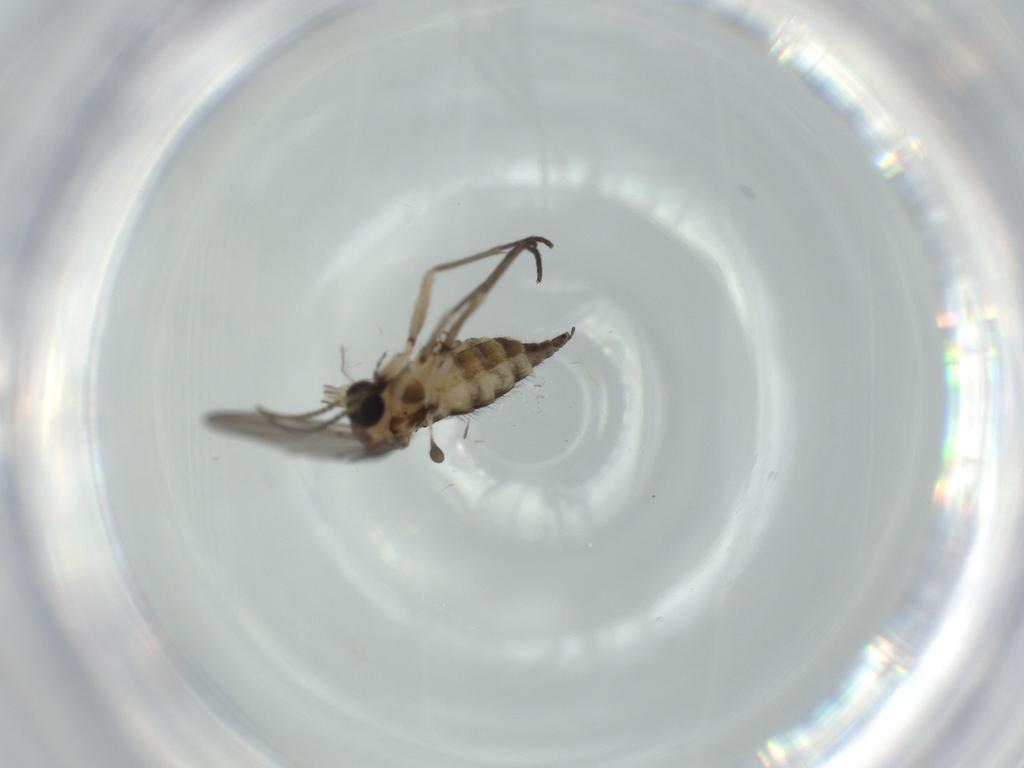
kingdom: Animalia
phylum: Arthropoda
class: Insecta
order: Diptera
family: Sciaridae
